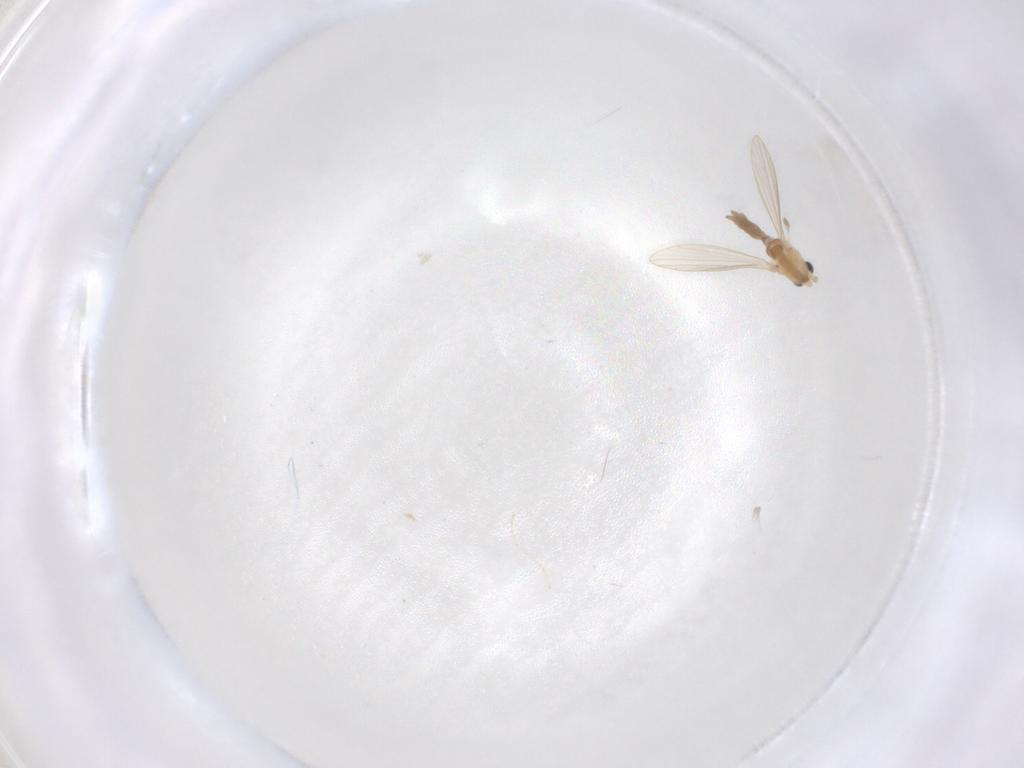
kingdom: Animalia
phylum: Arthropoda
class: Insecta
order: Diptera
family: Psychodidae
